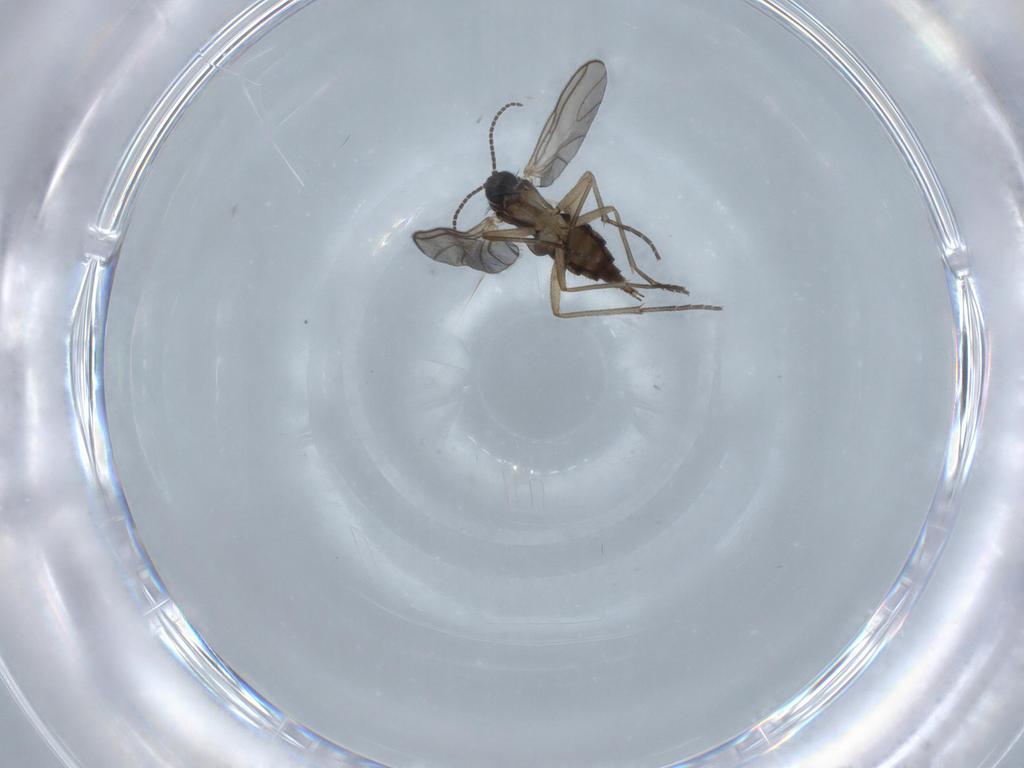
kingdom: Animalia
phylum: Arthropoda
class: Insecta
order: Diptera
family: Sciaridae
